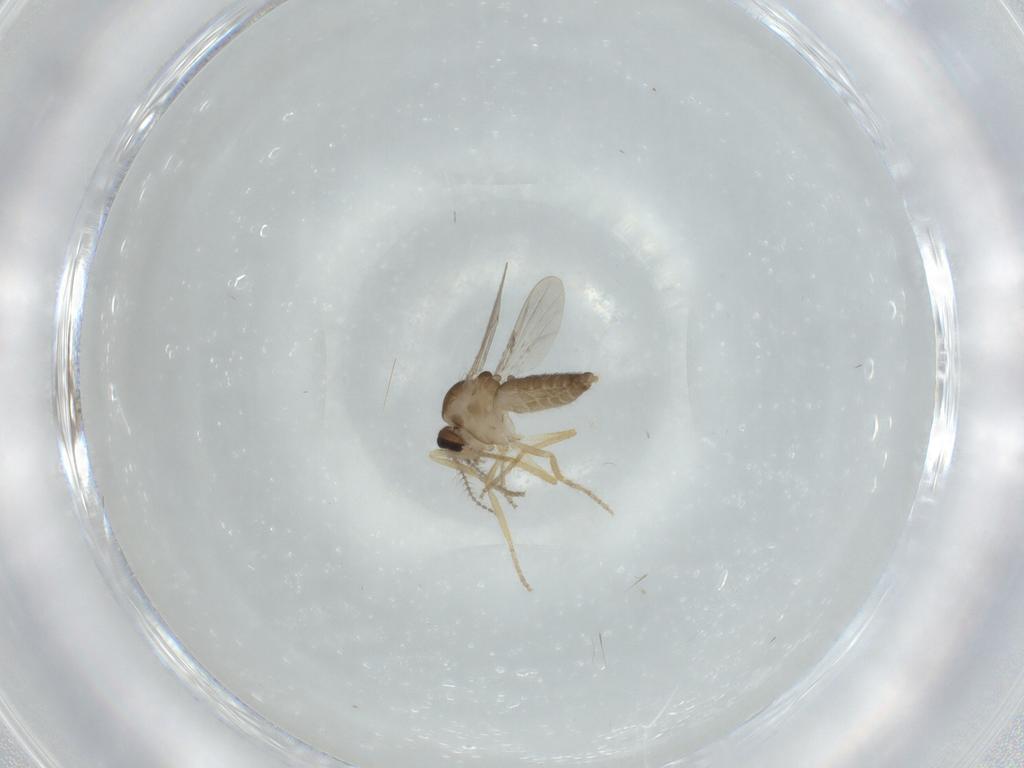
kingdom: Animalia
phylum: Arthropoda
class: Insecta
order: Diptera
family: Ceratopogonidae
